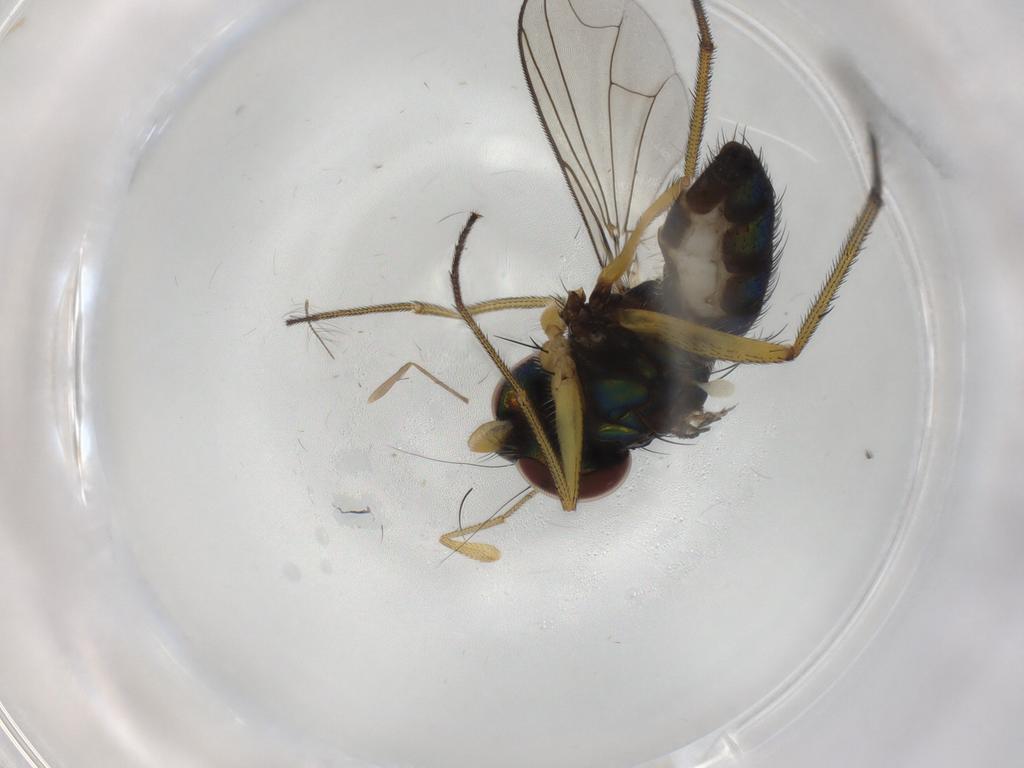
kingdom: Animalia
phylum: Arthropoda
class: Insecta
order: Diptera
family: Dolichopodidae
